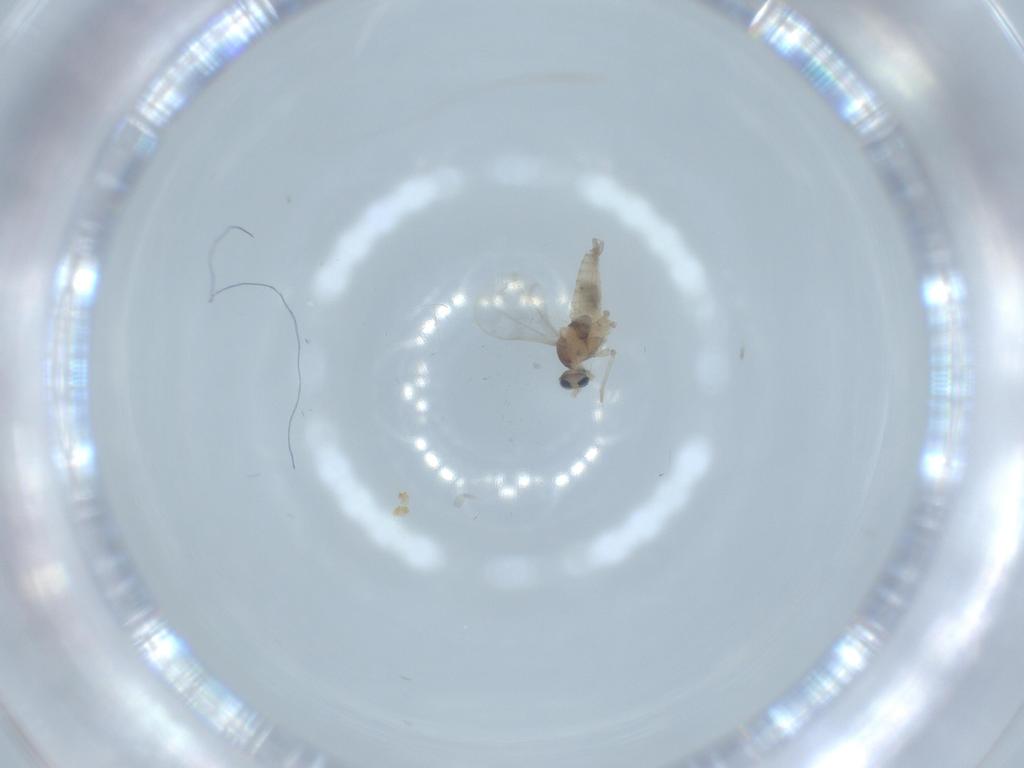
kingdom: Animalia
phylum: Arthropoda
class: Insecta
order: Diptera
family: Cecidomyiidae
